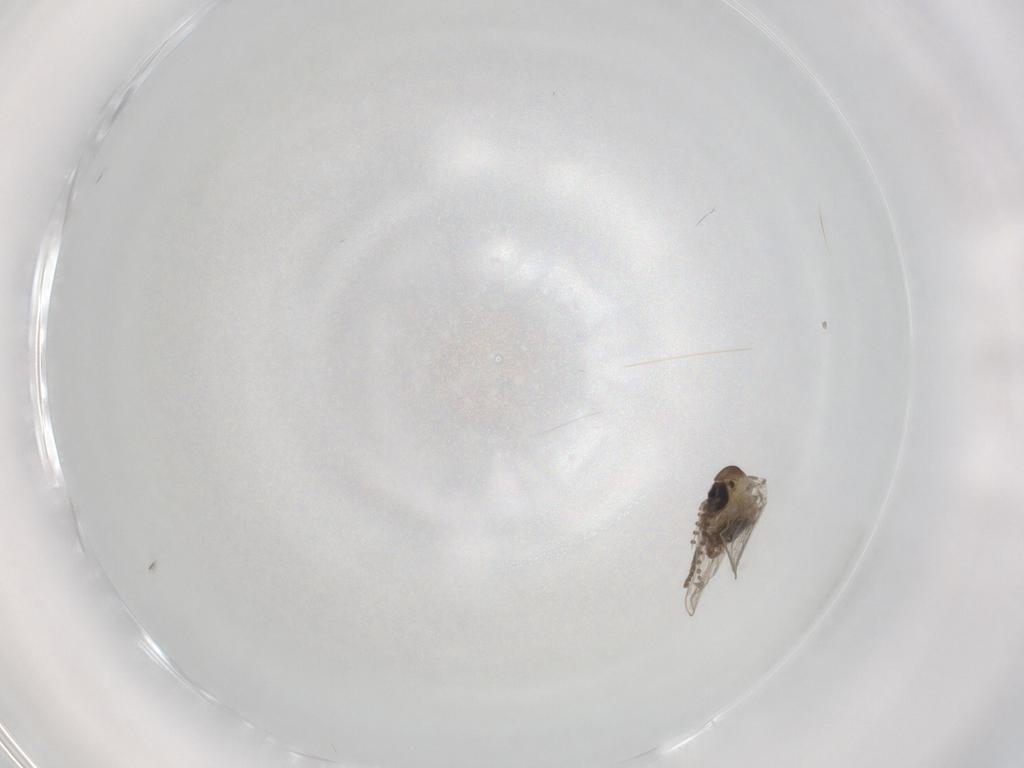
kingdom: Animalia
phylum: Arthropoda
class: Insecta
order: Diptera
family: Psychodidae
